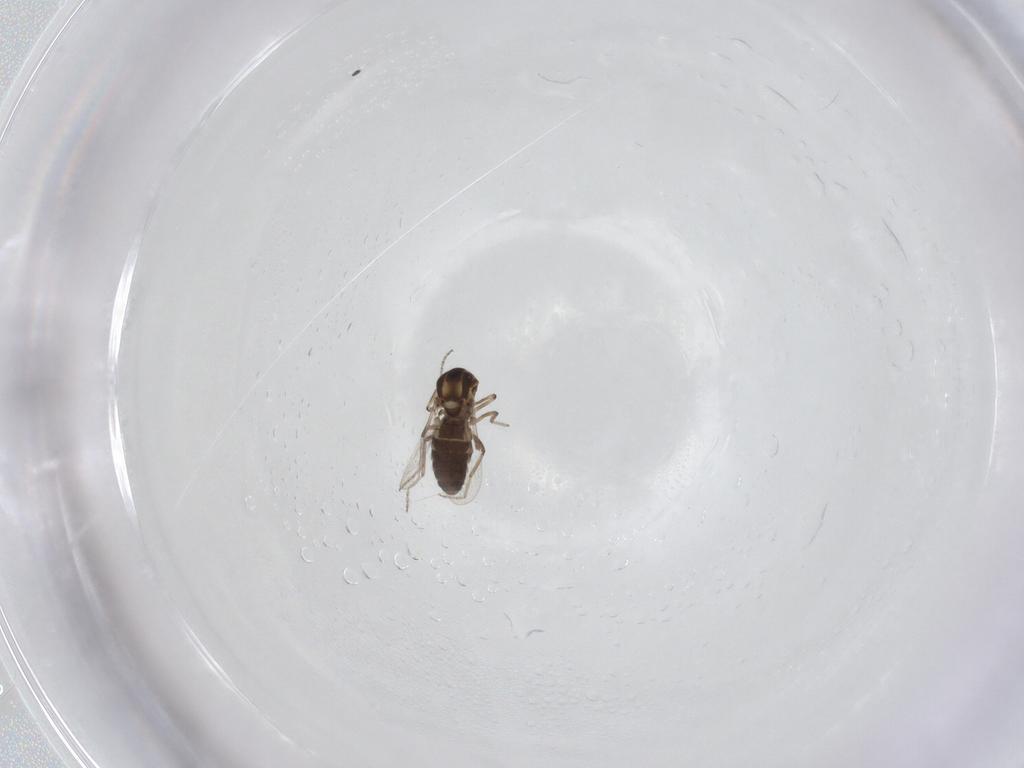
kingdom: Animalia
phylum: Arthropoda
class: Insecta
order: Diptera
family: Ceratopogonidae
